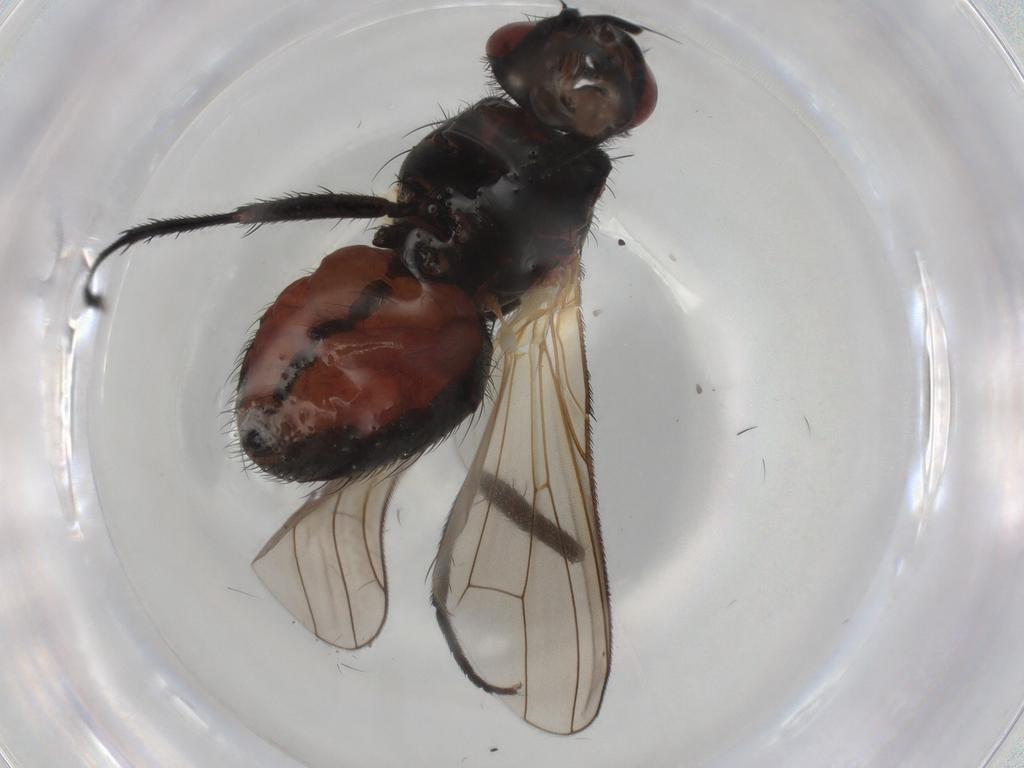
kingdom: Animalia
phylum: Arthropoda
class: Insecta
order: Diptera
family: Anthomyiidae
